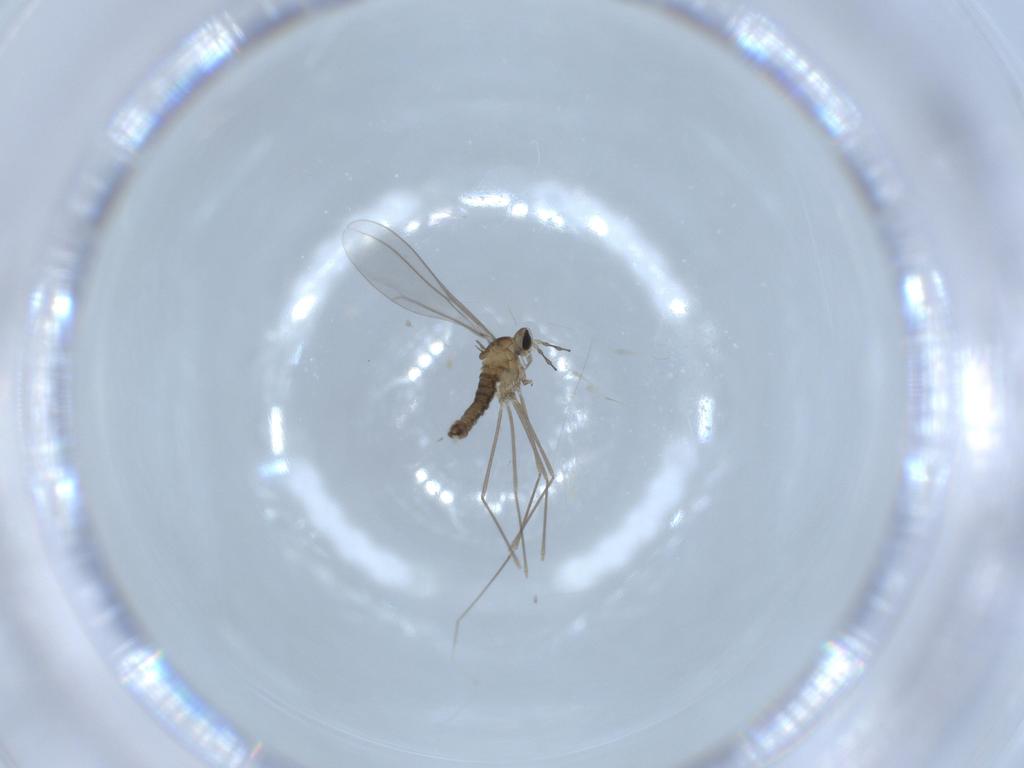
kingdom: Animalia
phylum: Arthropoda
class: Insecta
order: Diptera
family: Cecidomyiidae
